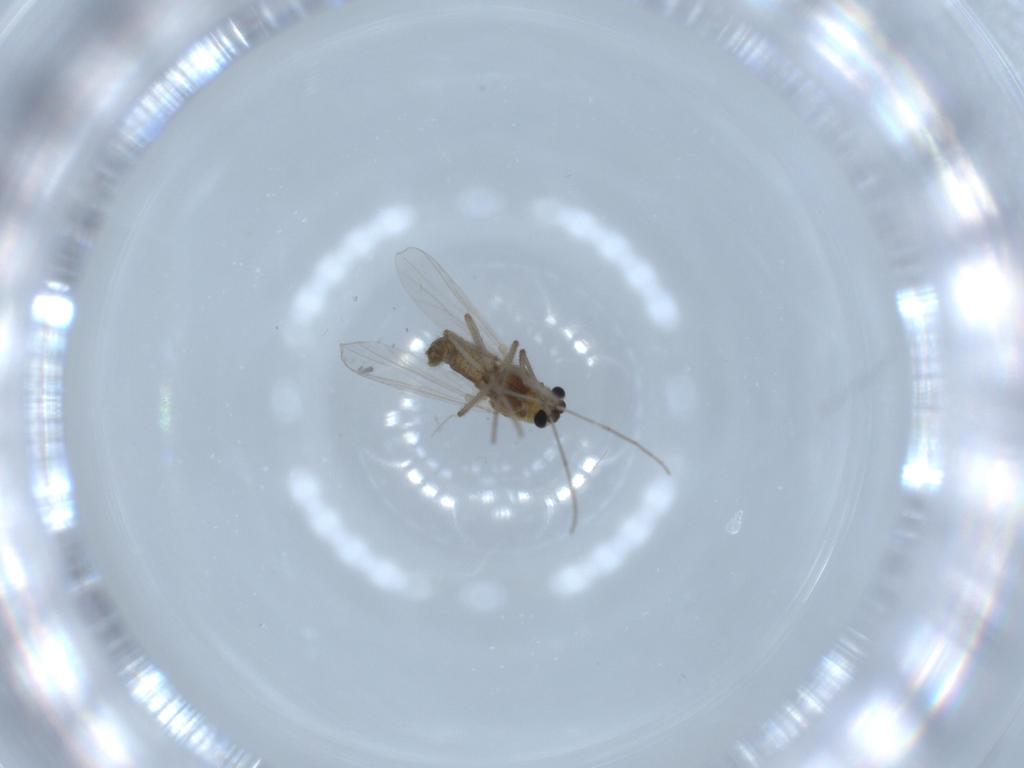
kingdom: Animalia
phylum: Arthropoda
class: Insecta
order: Diptera
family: Chironomidae
